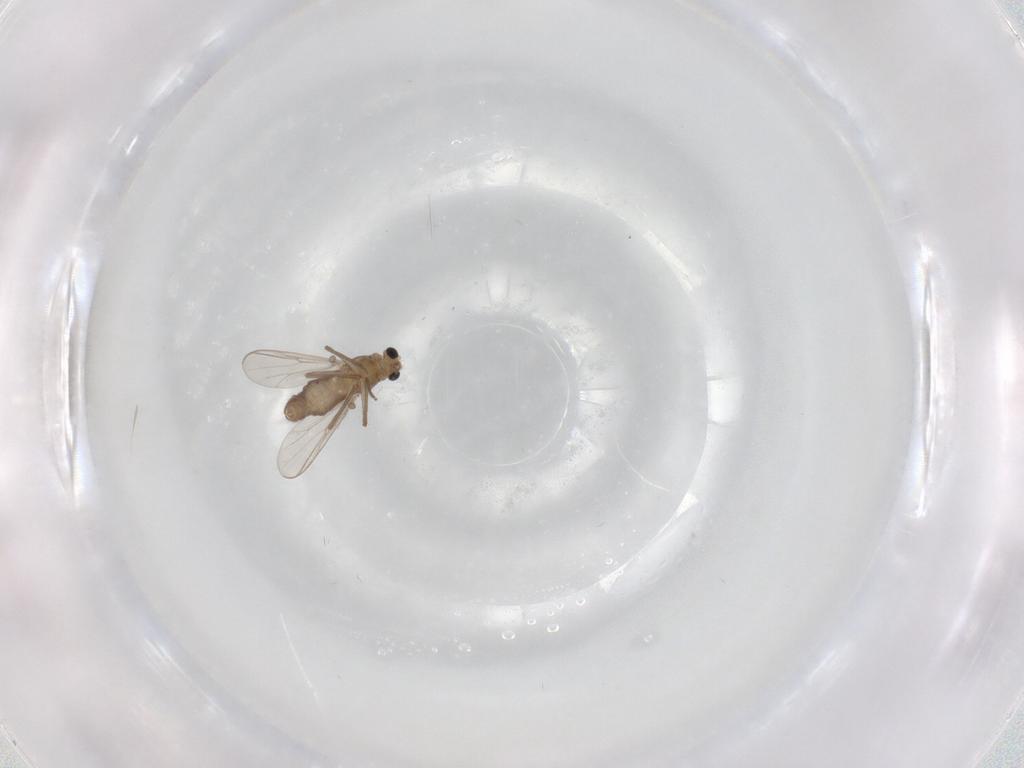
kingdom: Animalia
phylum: Arthropoda
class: Insecta
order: Diptera
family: Chironomidae
